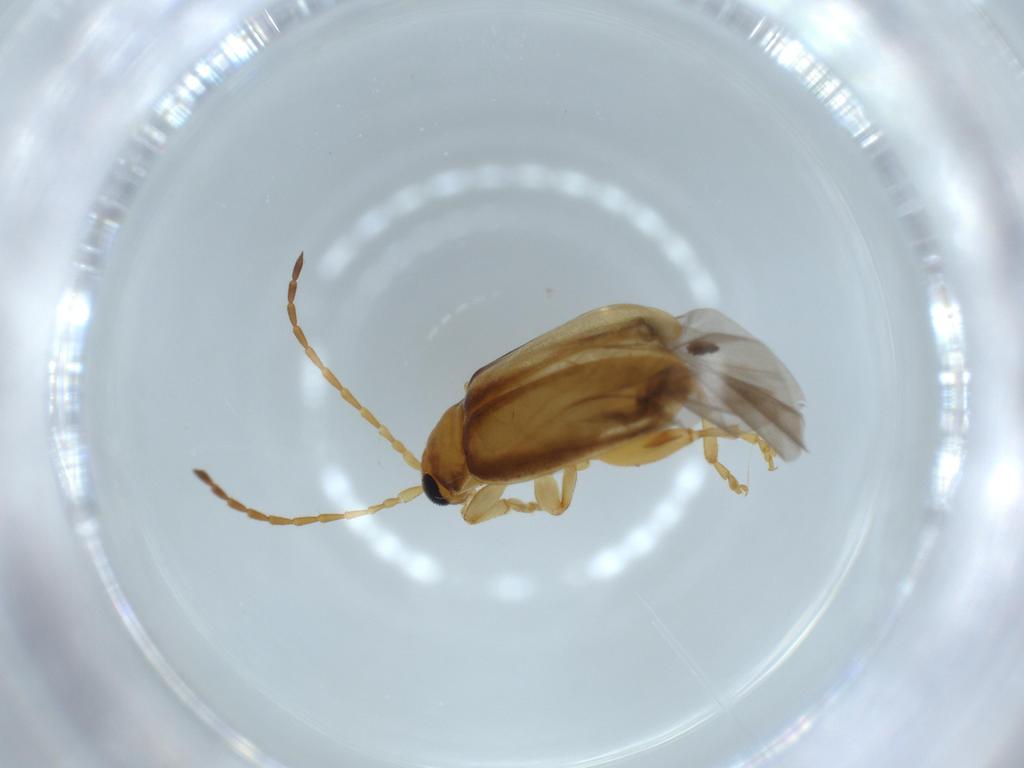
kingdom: Animalia
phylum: Arthropoda
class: Insecta
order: Coleoptera
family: Chrysomelidae
